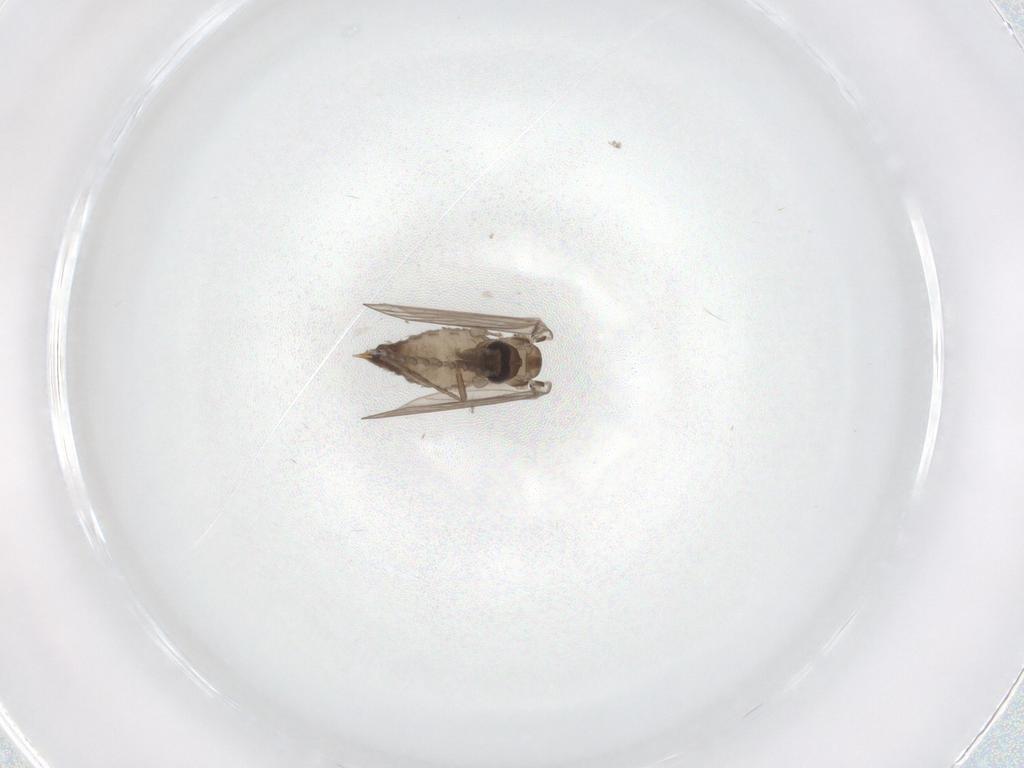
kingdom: Animalia
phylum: Arthropoda
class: Insecta
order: Diptera
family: Psychodidae
